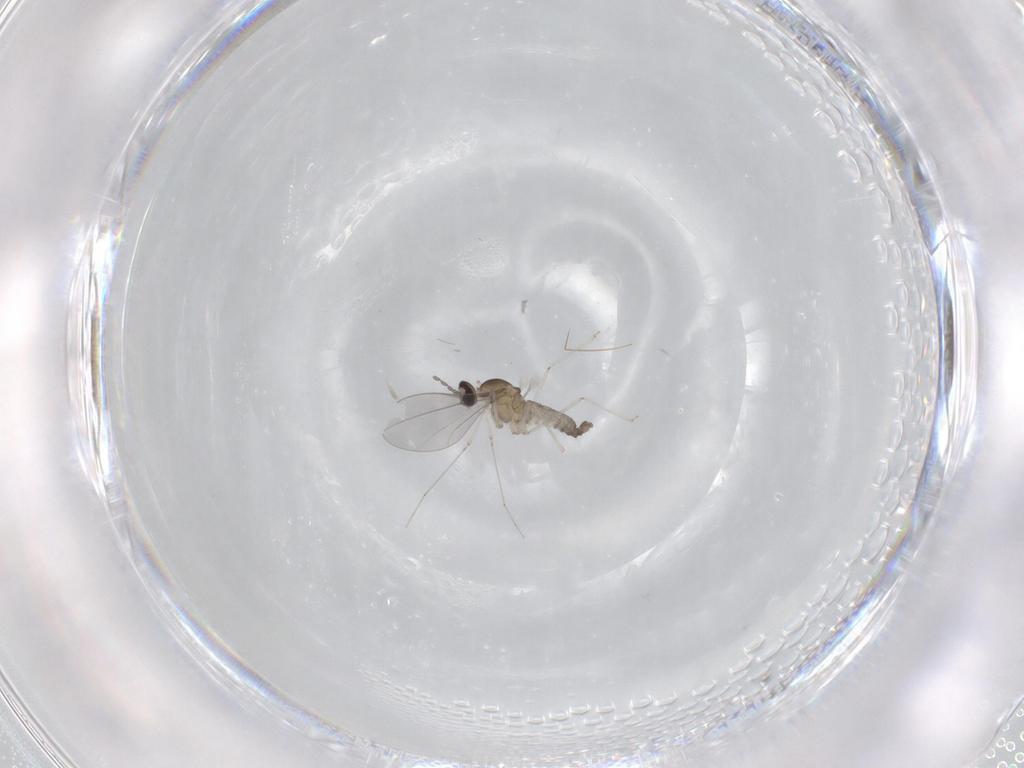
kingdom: Animalia
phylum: Arthropoda
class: Insecta
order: Diptera
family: Cecidomyiidae
